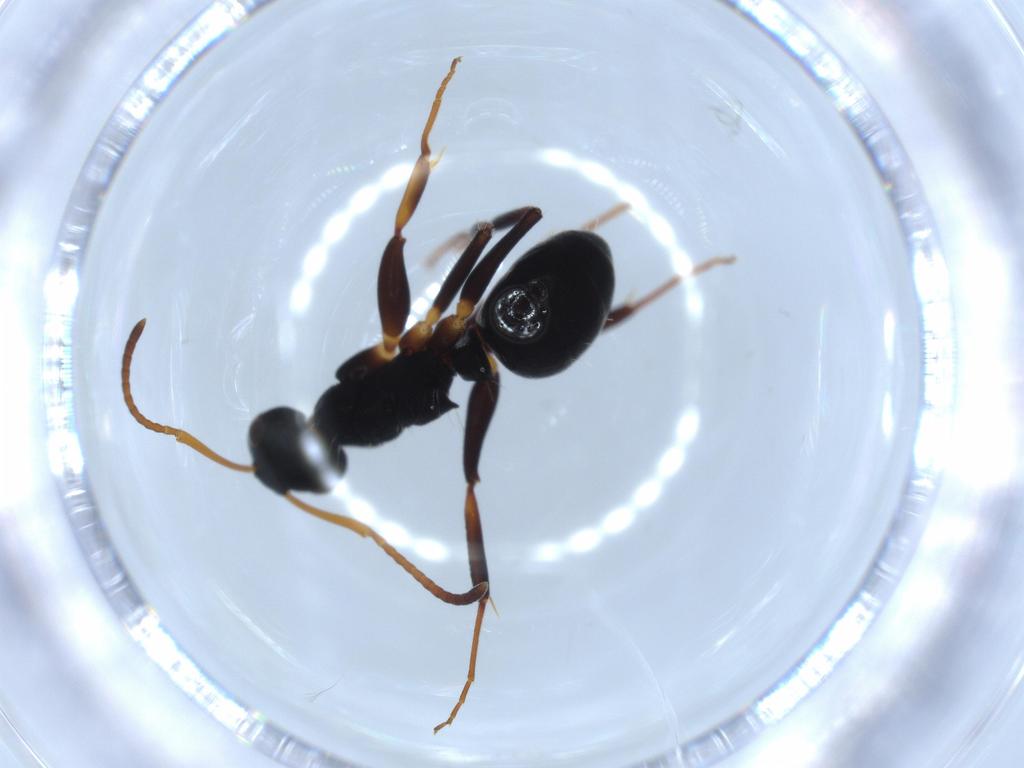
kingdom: Animalia
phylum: Arthropoda
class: Insecta
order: Hymenoptera
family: Formicidae
